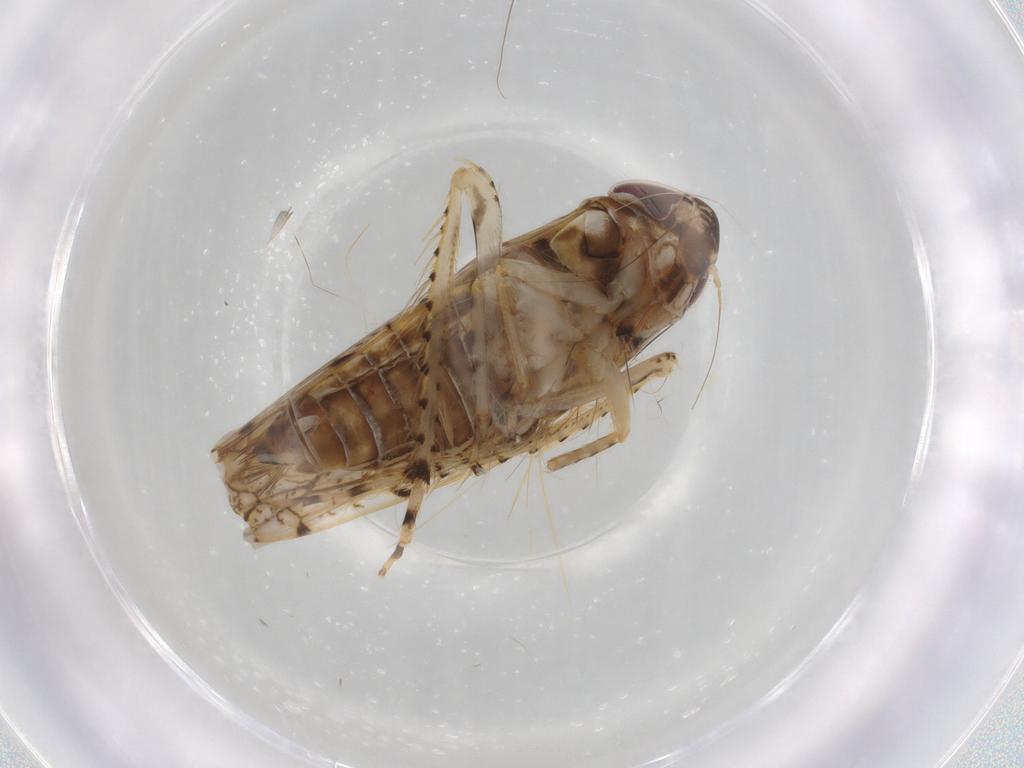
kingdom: Animalia
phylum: Arthropoda
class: Insecta
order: Hemiptera
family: Cicadellidae
